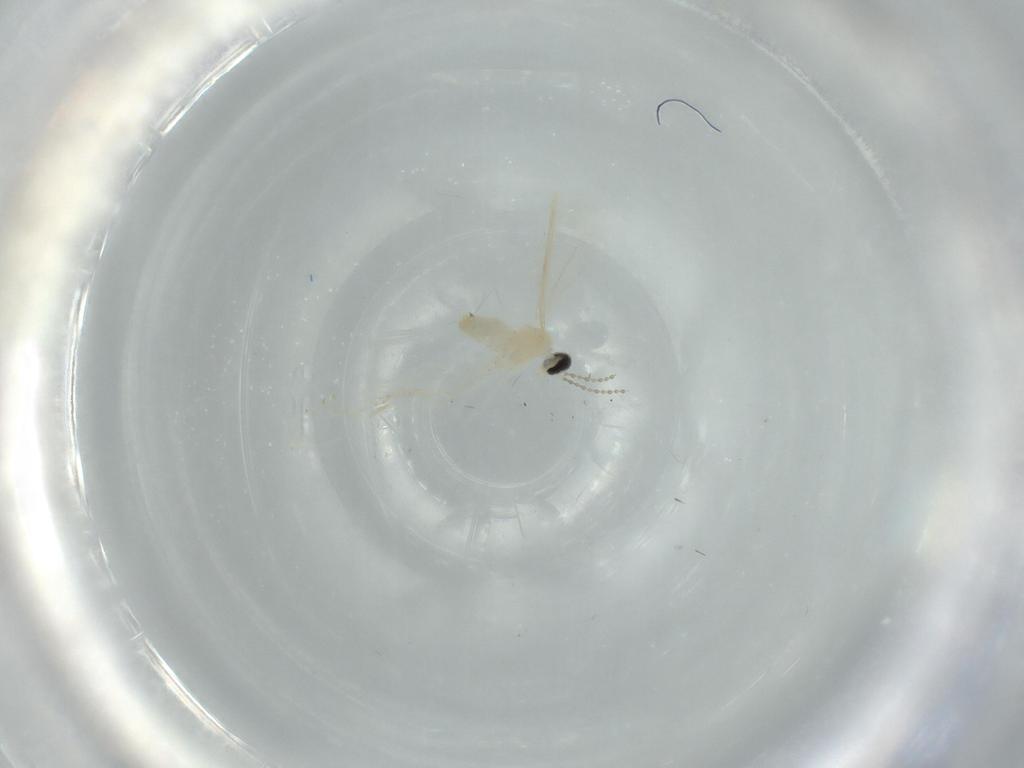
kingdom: Animalia
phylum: Arthropoda
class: Insecta
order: Diptera
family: Cecidomyiidae
